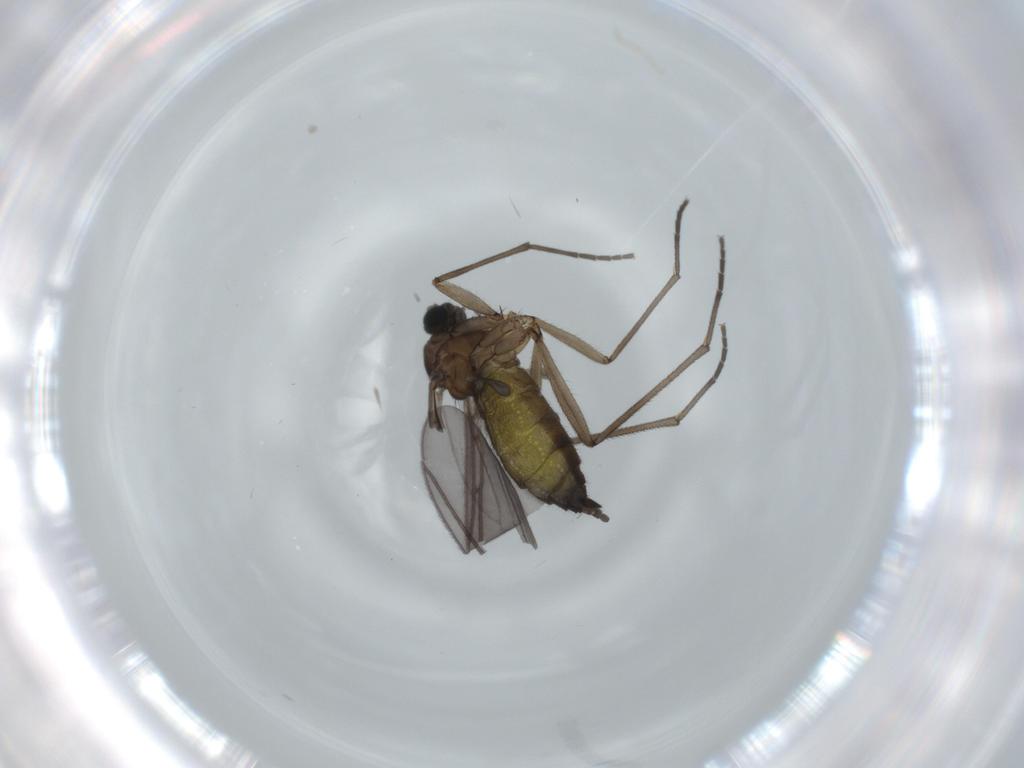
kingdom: Animalia
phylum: Arthropoda
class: Insecta
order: Diptera
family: Sciaridae
